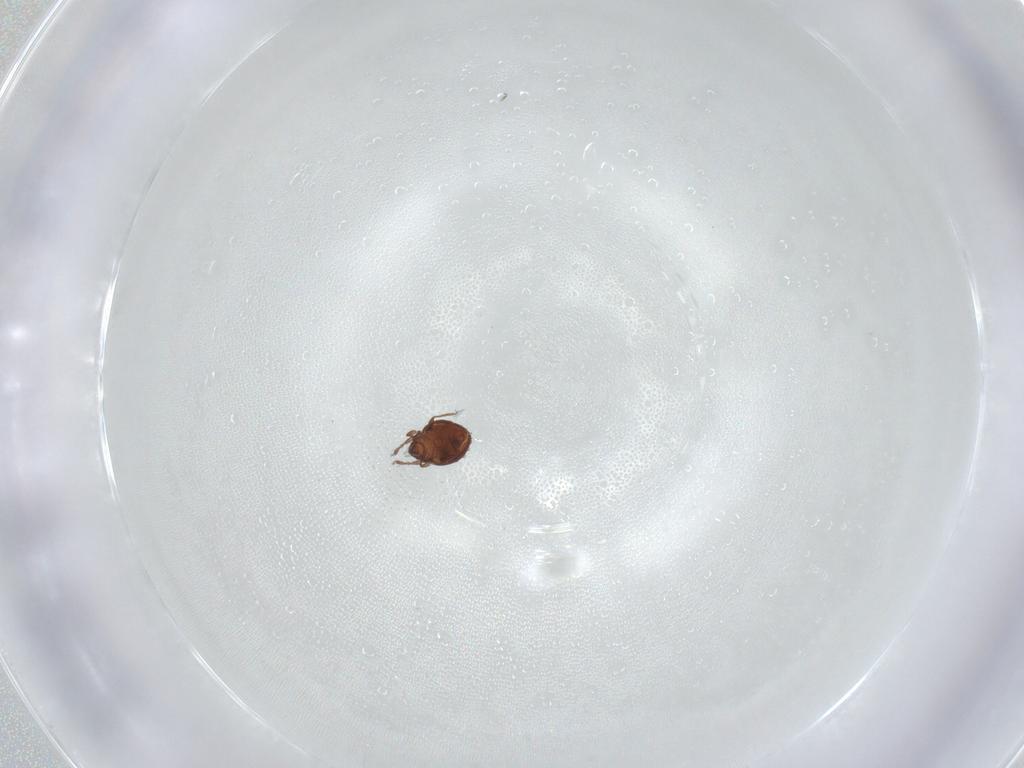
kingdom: Animalia
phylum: Arthropoda
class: Arachnida
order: Sarcoptiformes
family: Oribatulidae
